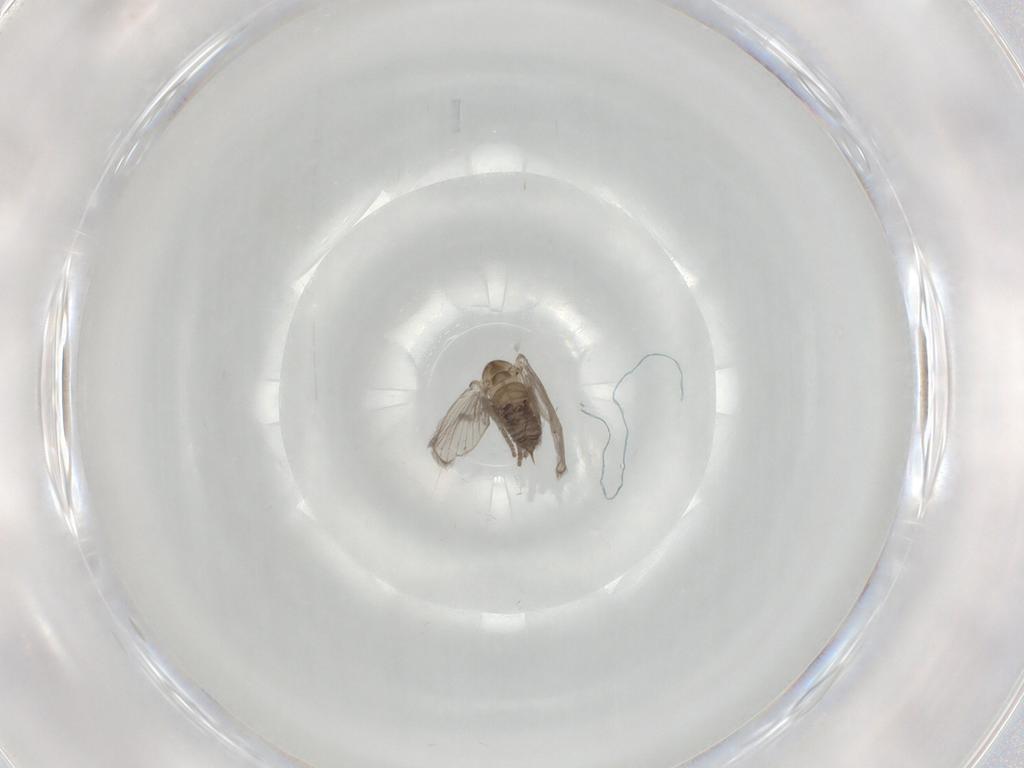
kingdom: Animalia
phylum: Arthropoda
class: Insecta
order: Diptera
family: Psychodidae
